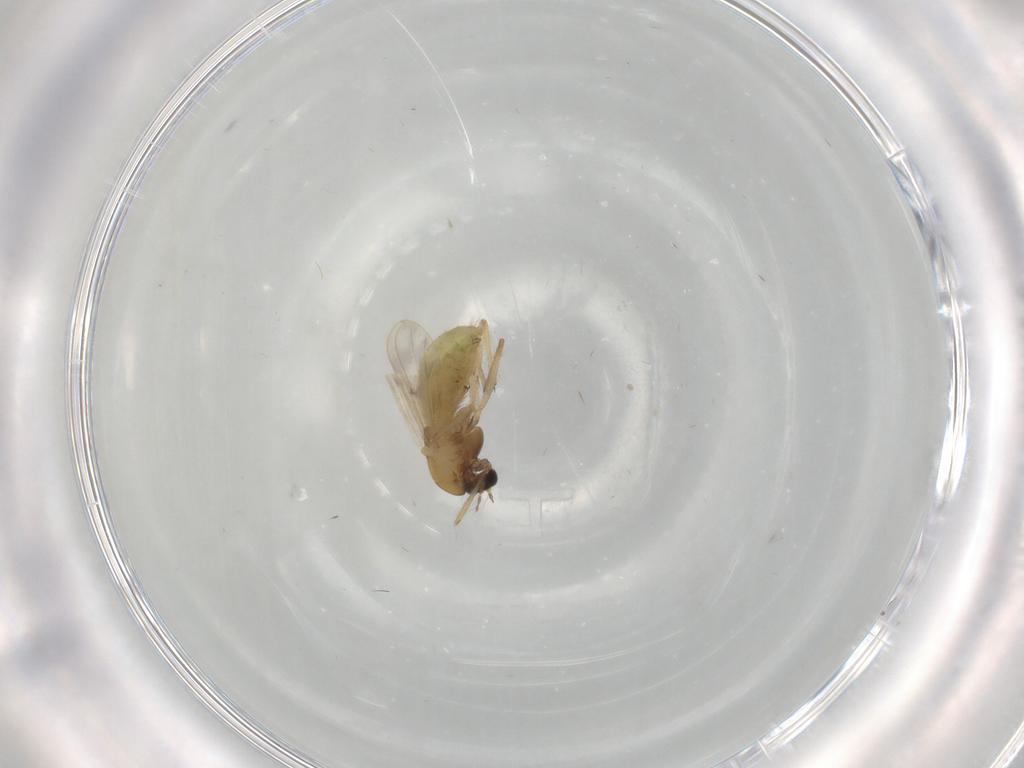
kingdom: Animalia
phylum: Arthropoda
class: Insecta
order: Diptera
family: Chironomidae
